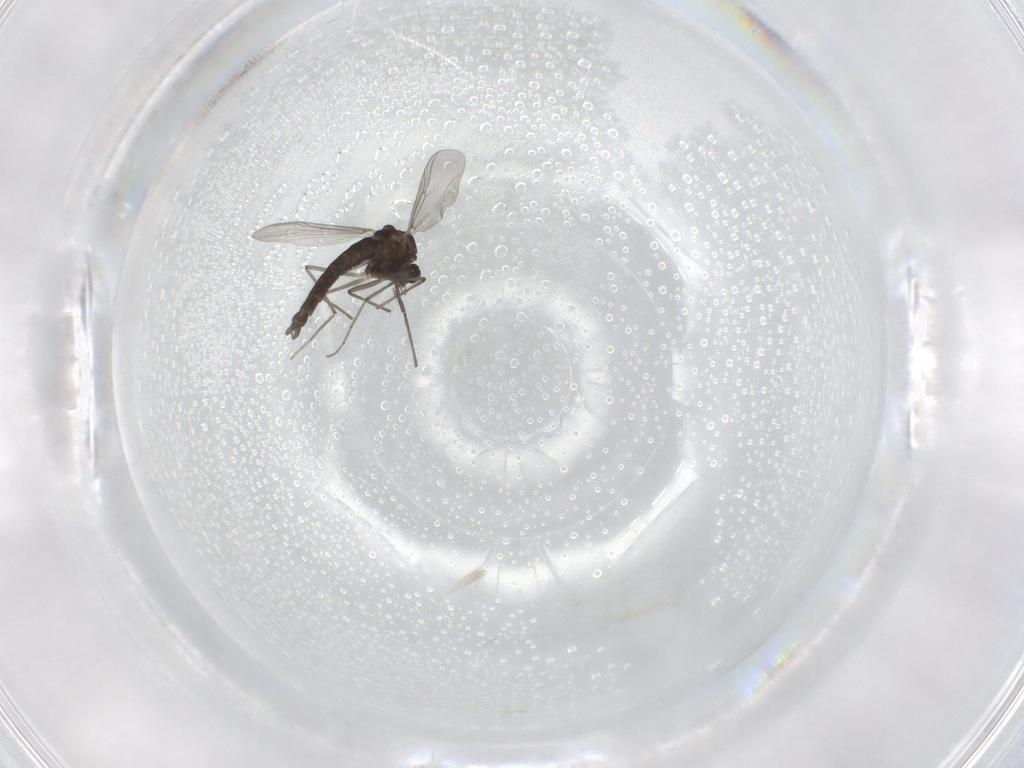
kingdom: Animalia
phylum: Arthropoda
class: Insecta
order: Diptera
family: Chironomidae
